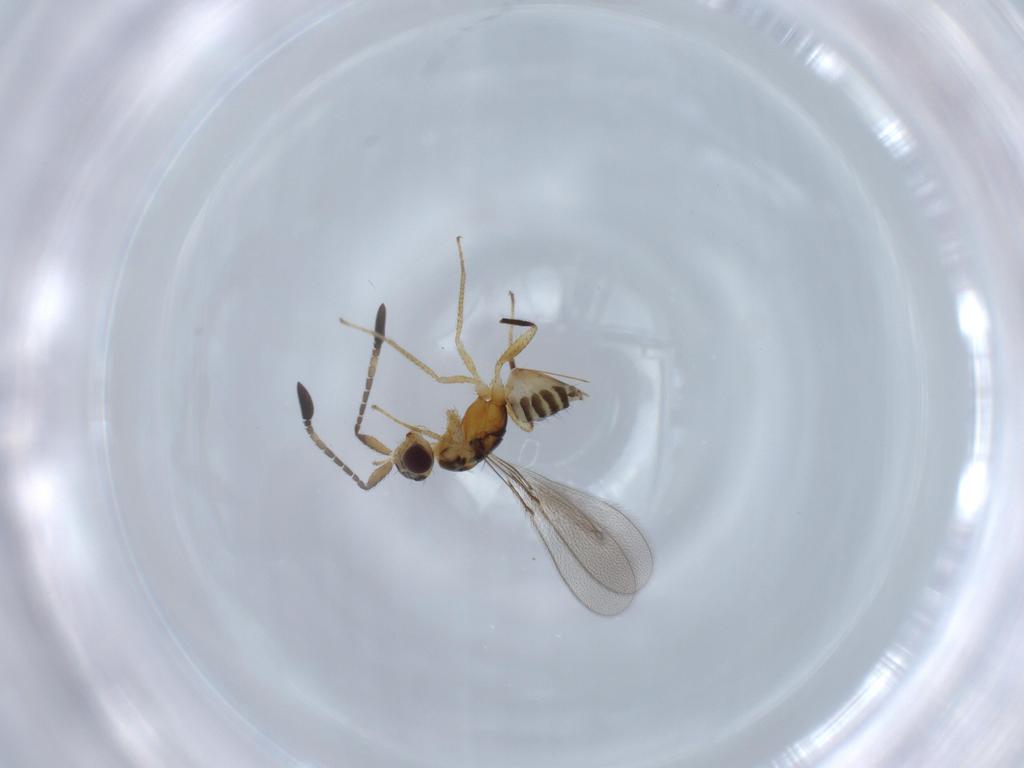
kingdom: Animalia
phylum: Arthropoda
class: Insecta
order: Hymenoptera
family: Mymaridae
